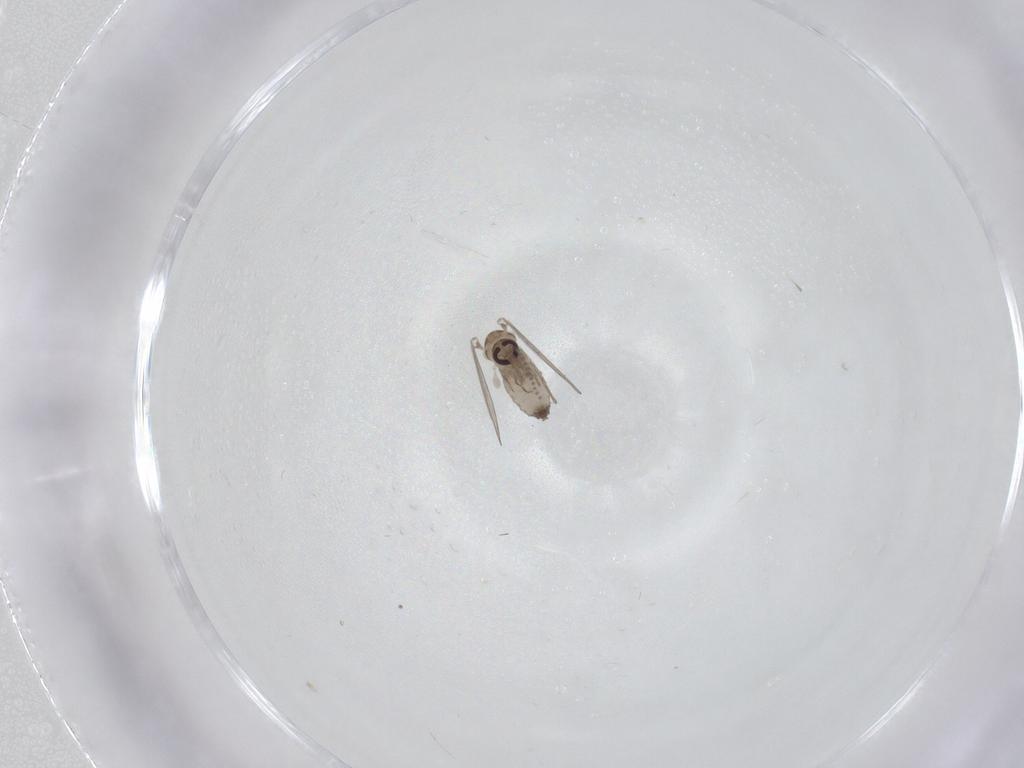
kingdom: Animalia
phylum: Arthropoda
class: Insecta
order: Diptera
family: Psychodidae
